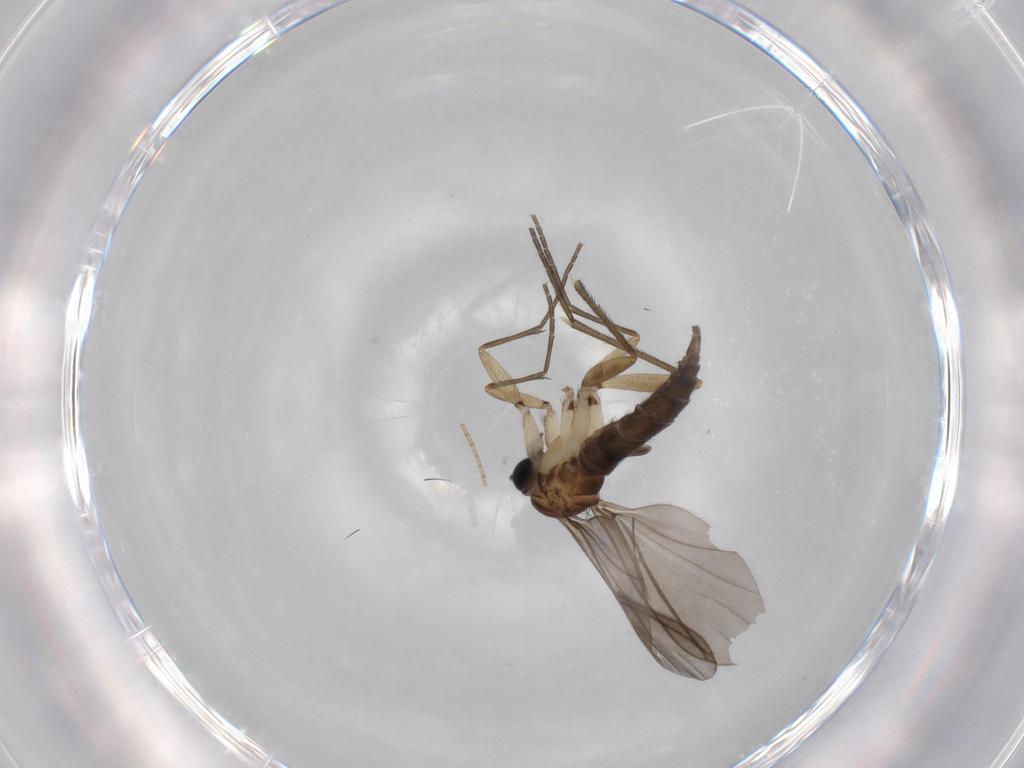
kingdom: Animalia
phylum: Arthropoda
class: Insecta
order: Diptera
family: Sciaridae
